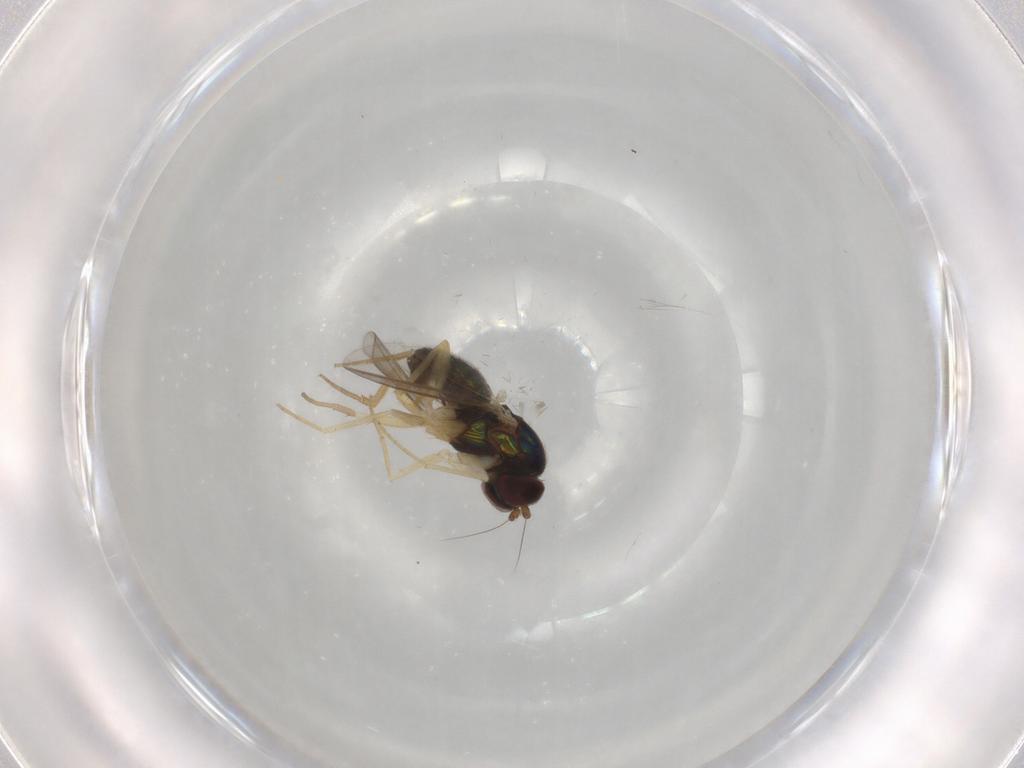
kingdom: Animalia
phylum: Arthropoda
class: Insecta
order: Diptera
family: Dolichopodidae
